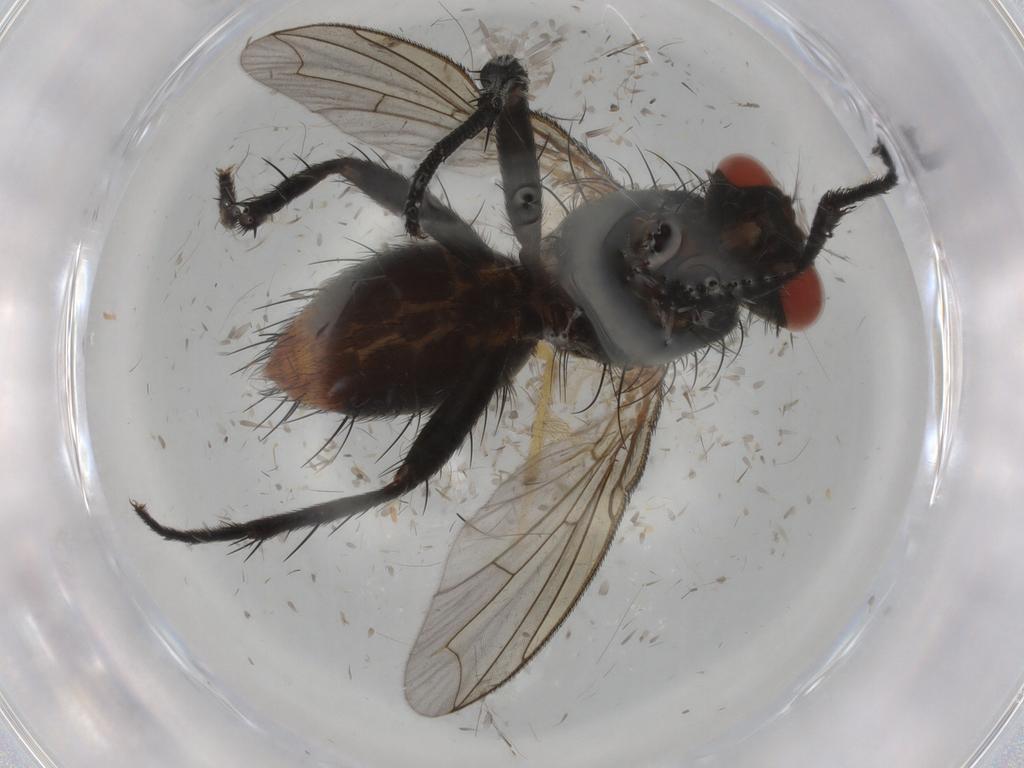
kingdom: Animalia
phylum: Arthropoda
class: Insecta
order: Diptera
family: Sarcophagidae
